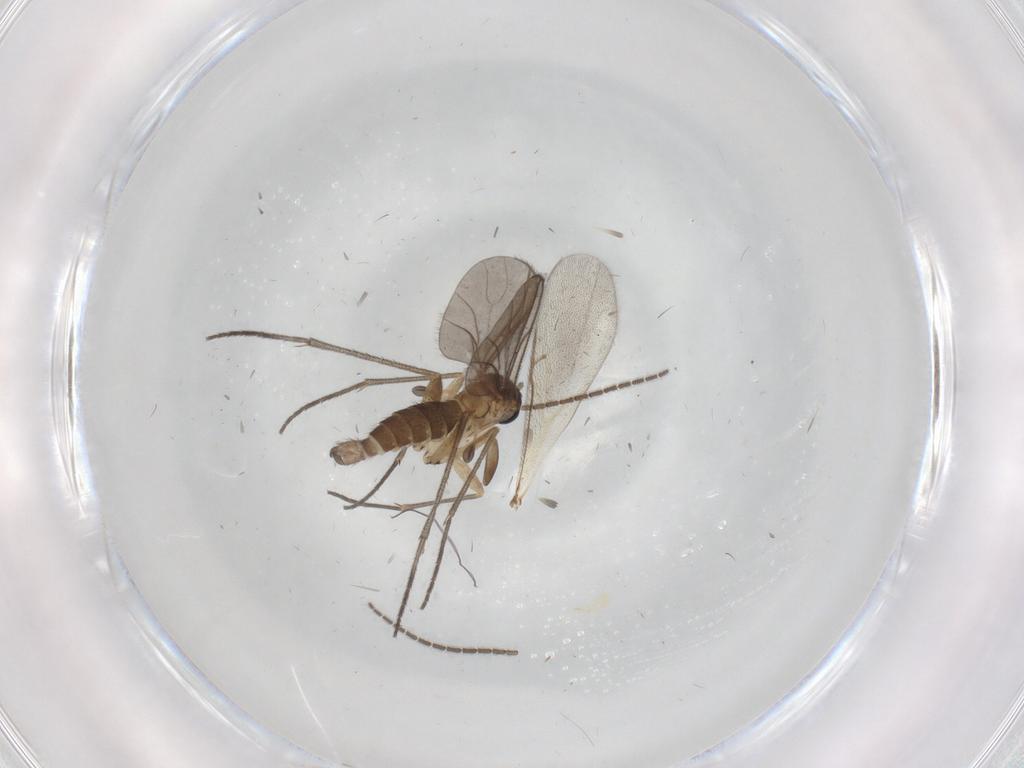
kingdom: Animalia
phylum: Arthropoda
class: Insecta
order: Diptera
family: Sciaridae
